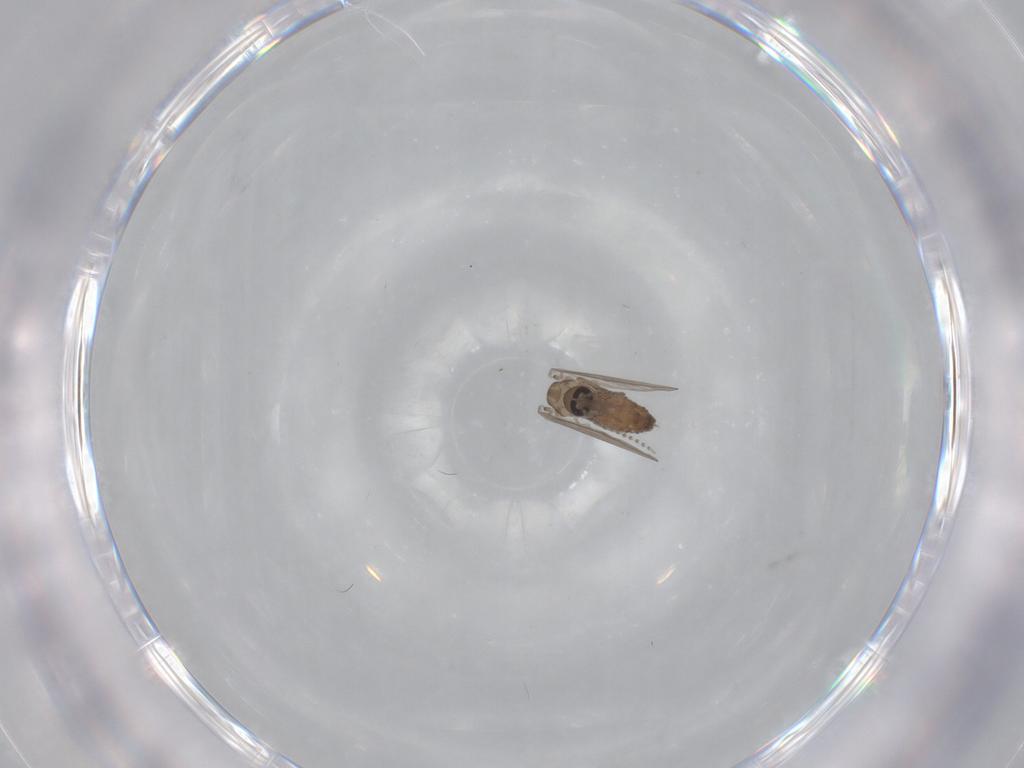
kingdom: Animalia
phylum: Arthropoda
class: Insecta
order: Diptera
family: Psychodidae
